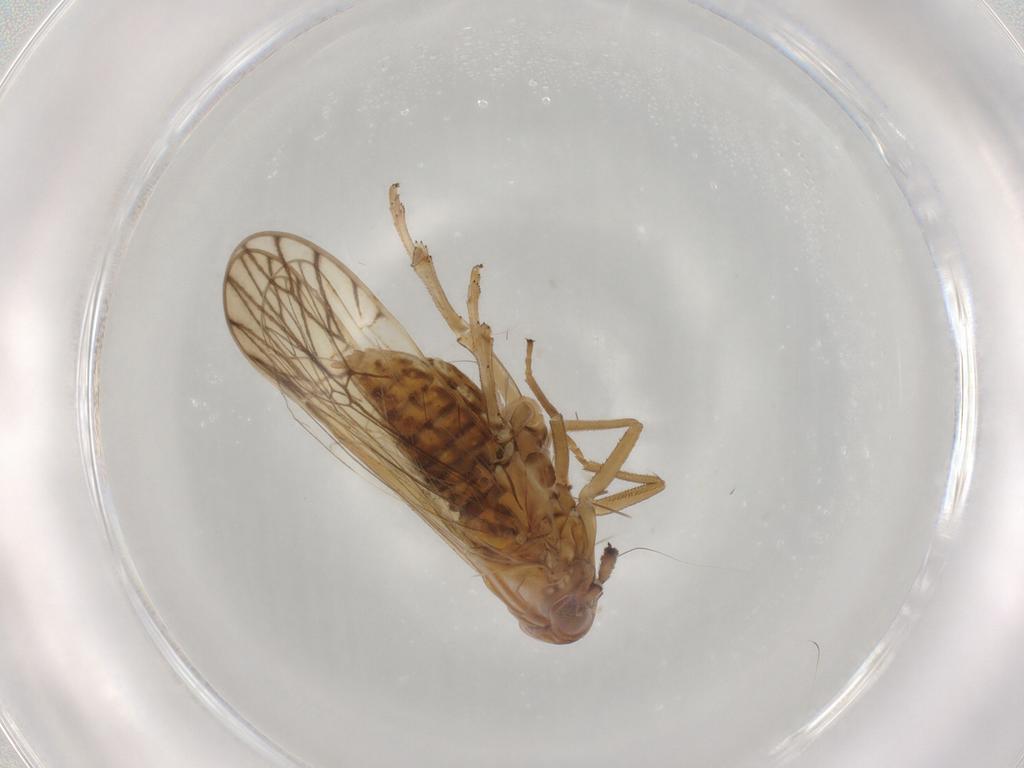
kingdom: Animalia
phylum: Arthropoda
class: Insecta
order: Hemiptera
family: Delphacidae
